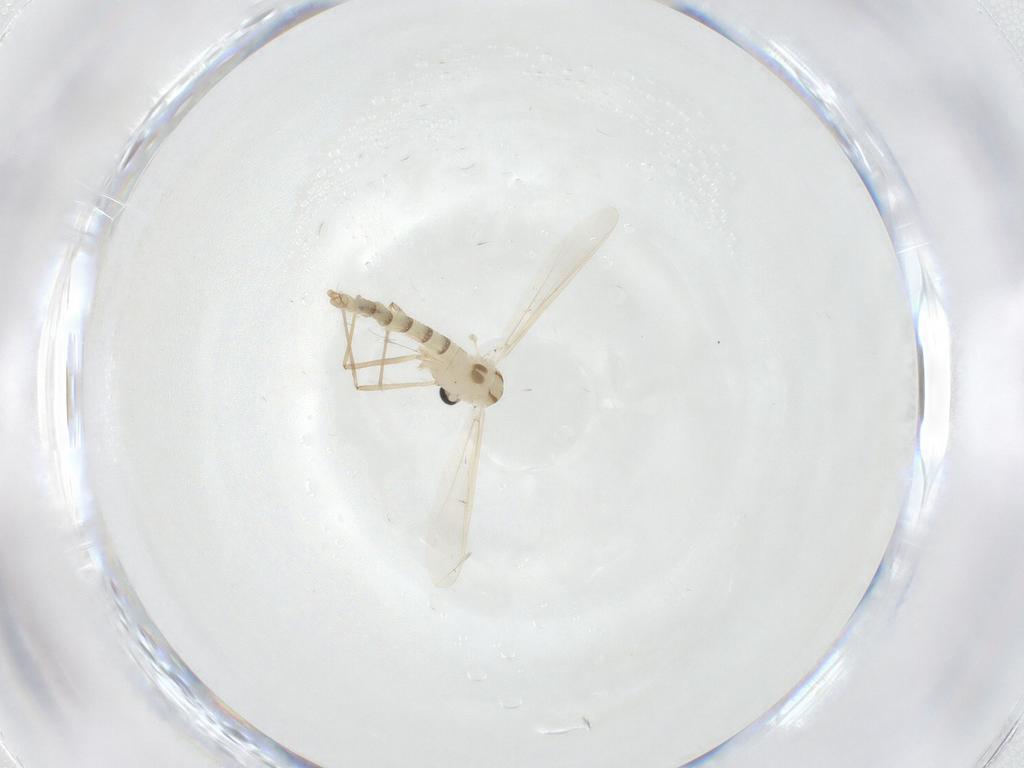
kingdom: Animalia
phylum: Arthropoda
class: Insecta
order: Diptera
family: Chironomidae
